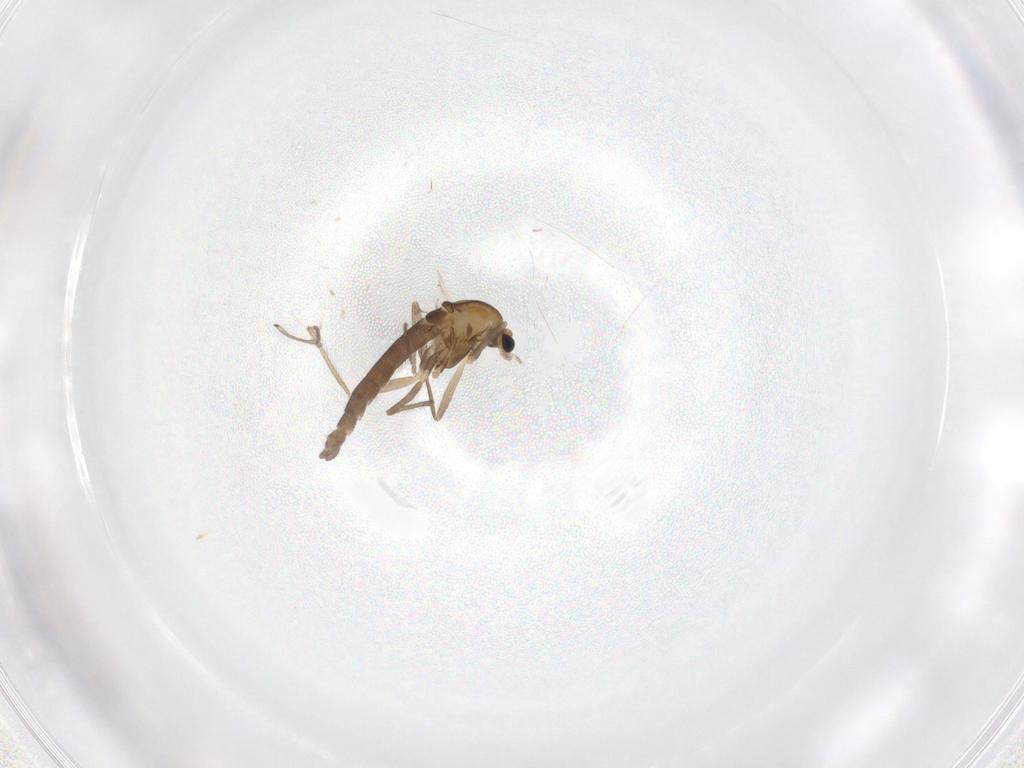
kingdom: Animalia
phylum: Arthropoda
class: Insecta
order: Diptera
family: Chironomidae
